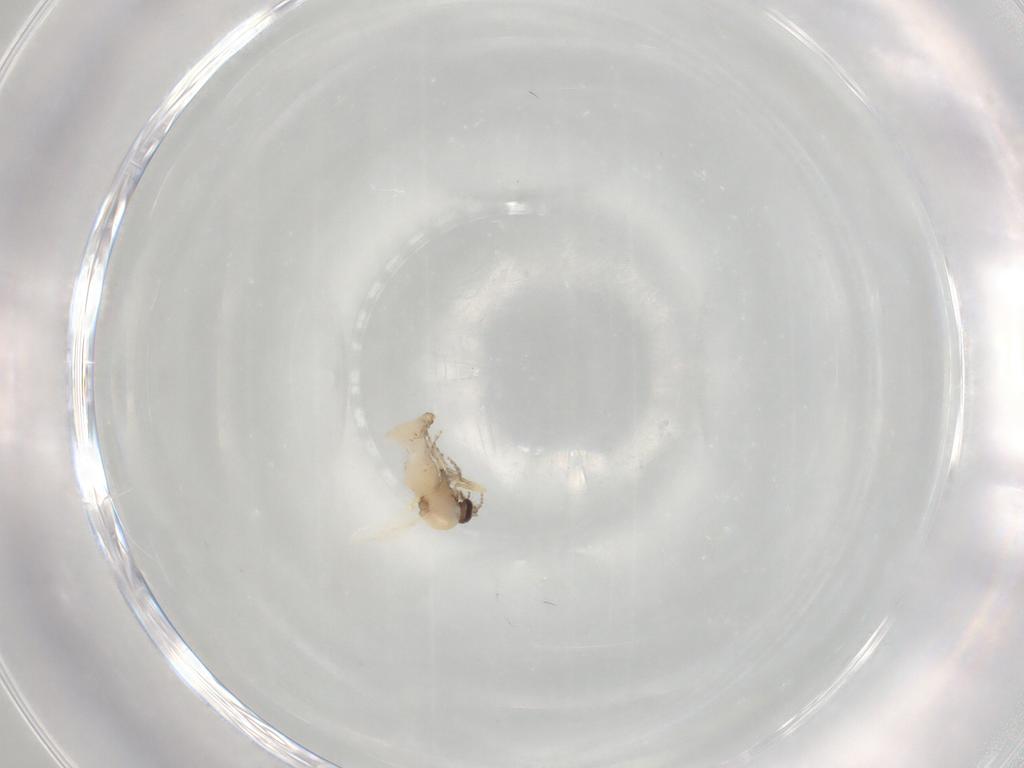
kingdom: Animalia
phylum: Arthropoda
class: Insecta
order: Diptera
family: Ceratopogonidae
